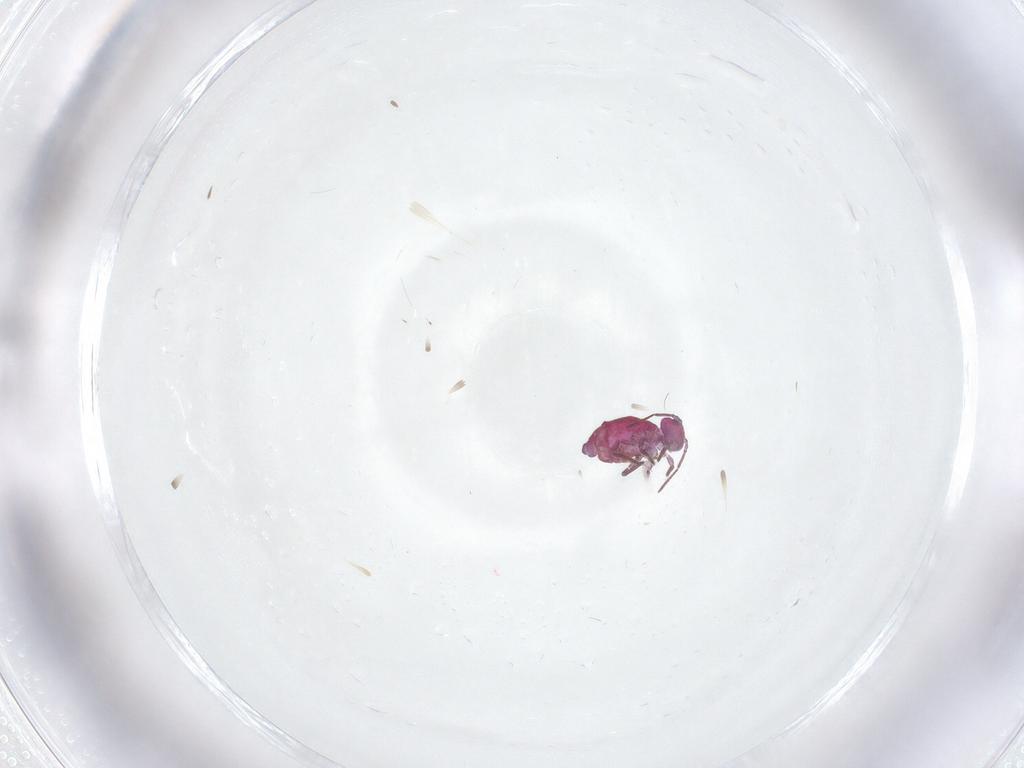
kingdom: Animalia
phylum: Arthropoda
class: Collembola
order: Symphypleona
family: Sminthuridae
